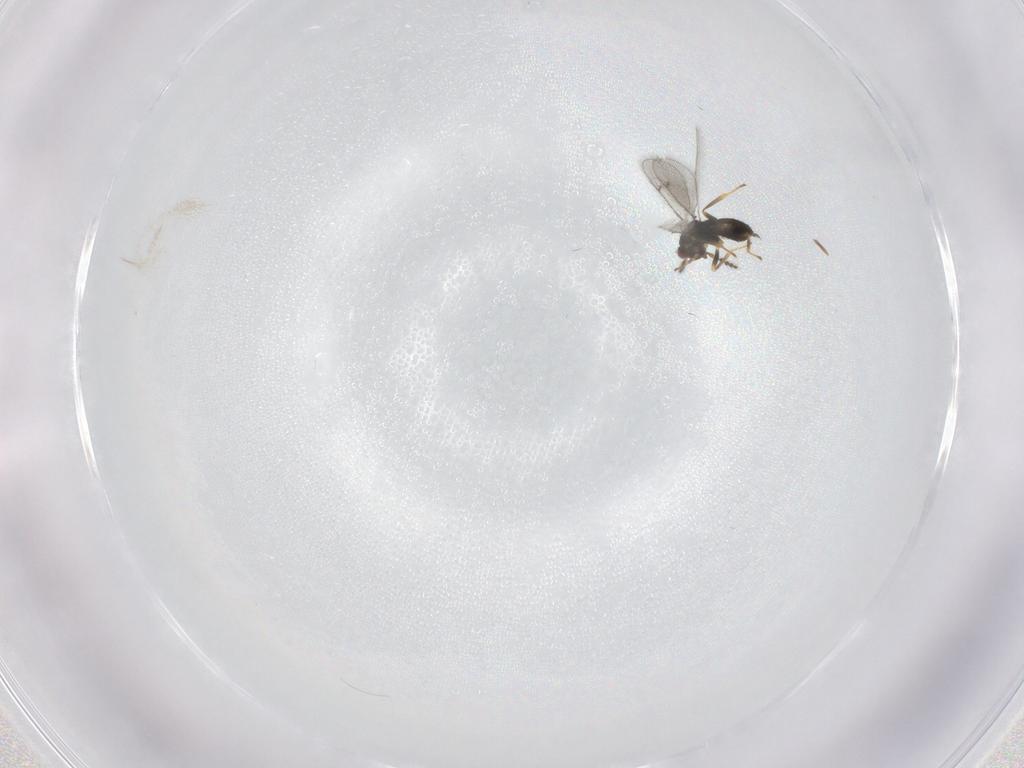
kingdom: Animalia
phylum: Arthropoda
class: Insecta
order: Hymenoptera
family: Eulophidae
